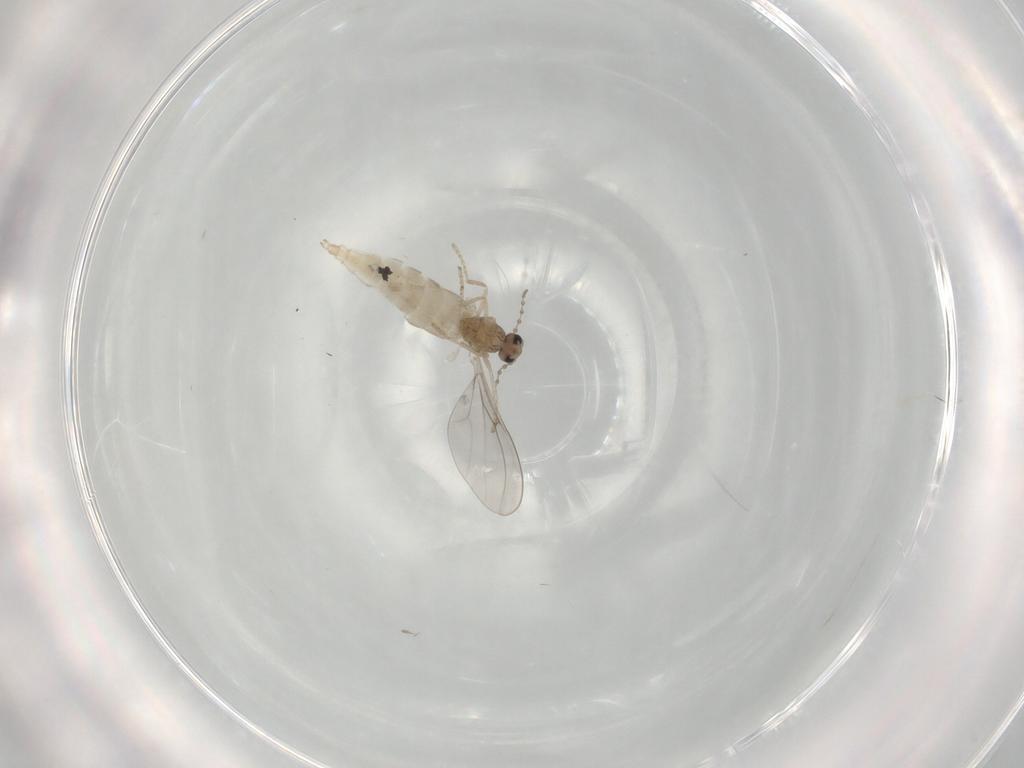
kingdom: Animalia
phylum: Arthropoda
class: Insecta
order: Diptera
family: Cecidomyiidae
